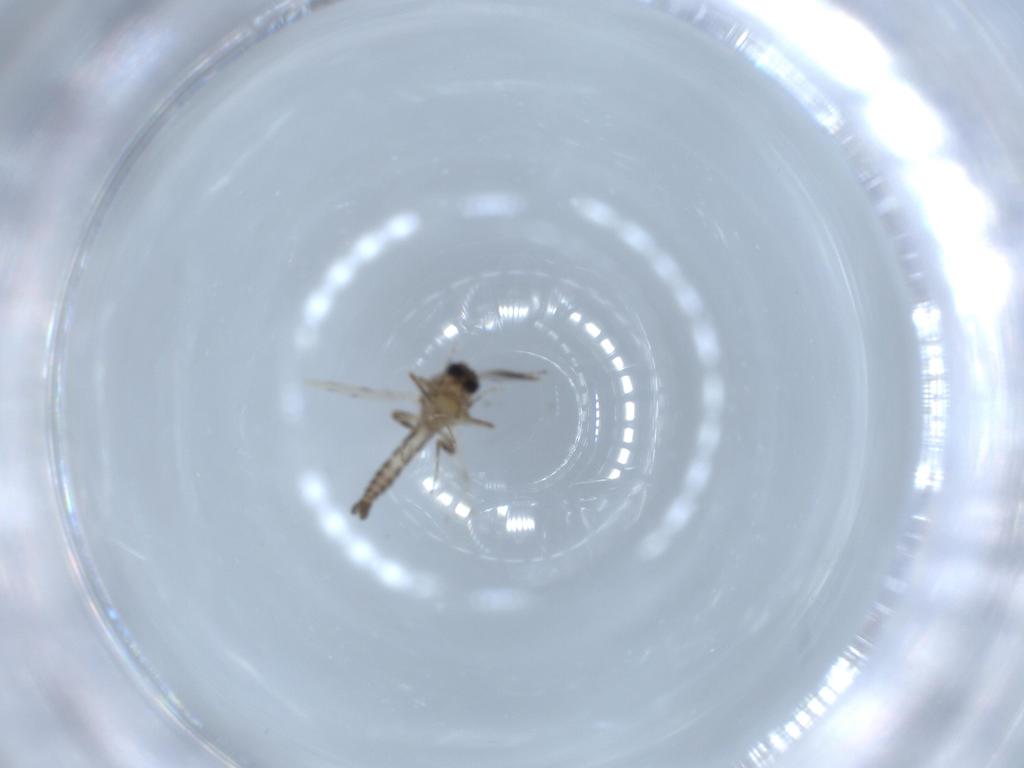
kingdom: Animalia
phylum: Arthropoda
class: Insecta
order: Diptera
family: Ceratopogonidae
